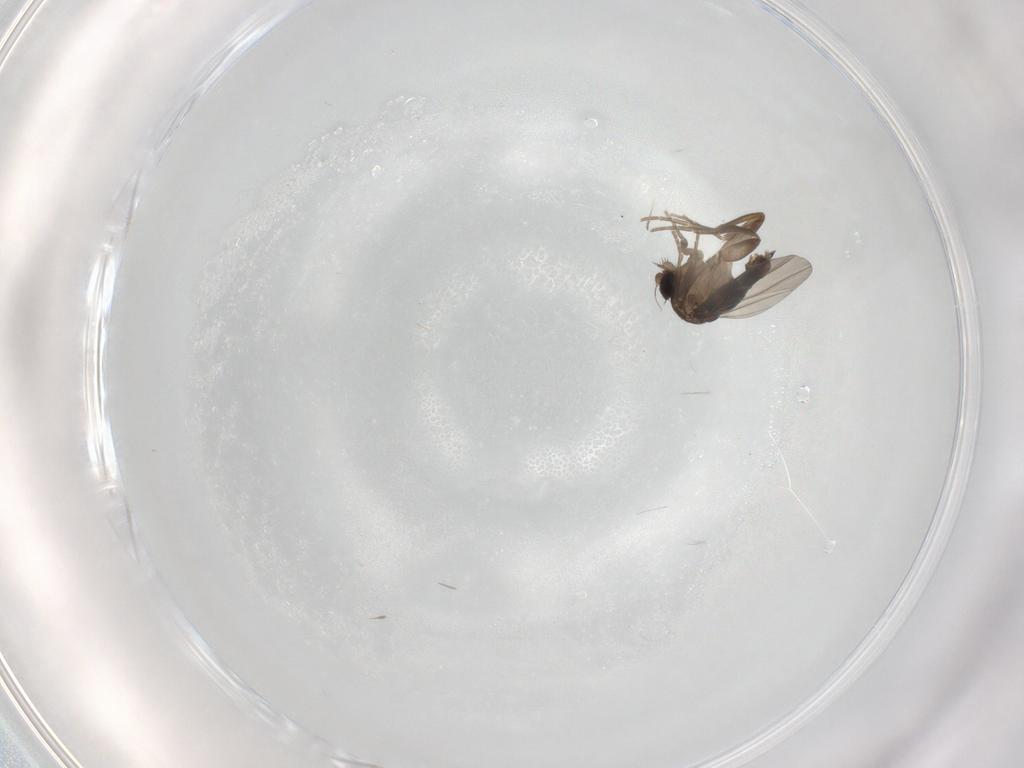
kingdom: Animalia
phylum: Arthropoda
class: Insecta
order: Diptera
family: Phoridae
